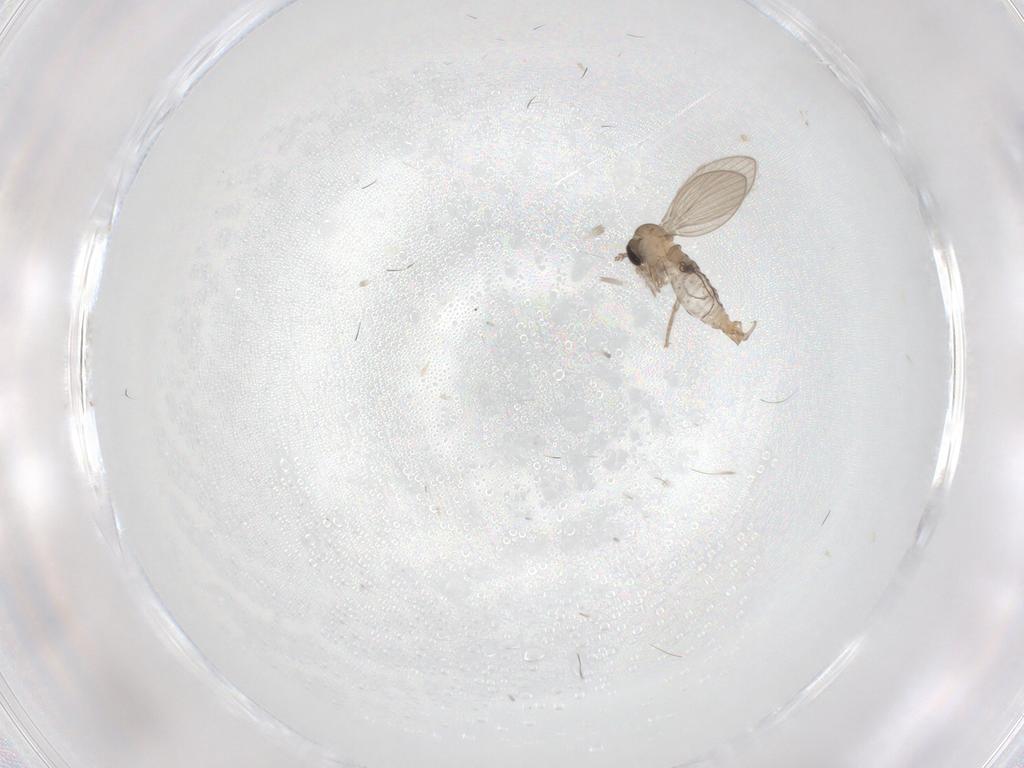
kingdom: Animalia
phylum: Arthropoda
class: Insecta
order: Diptera
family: Psychodidae
